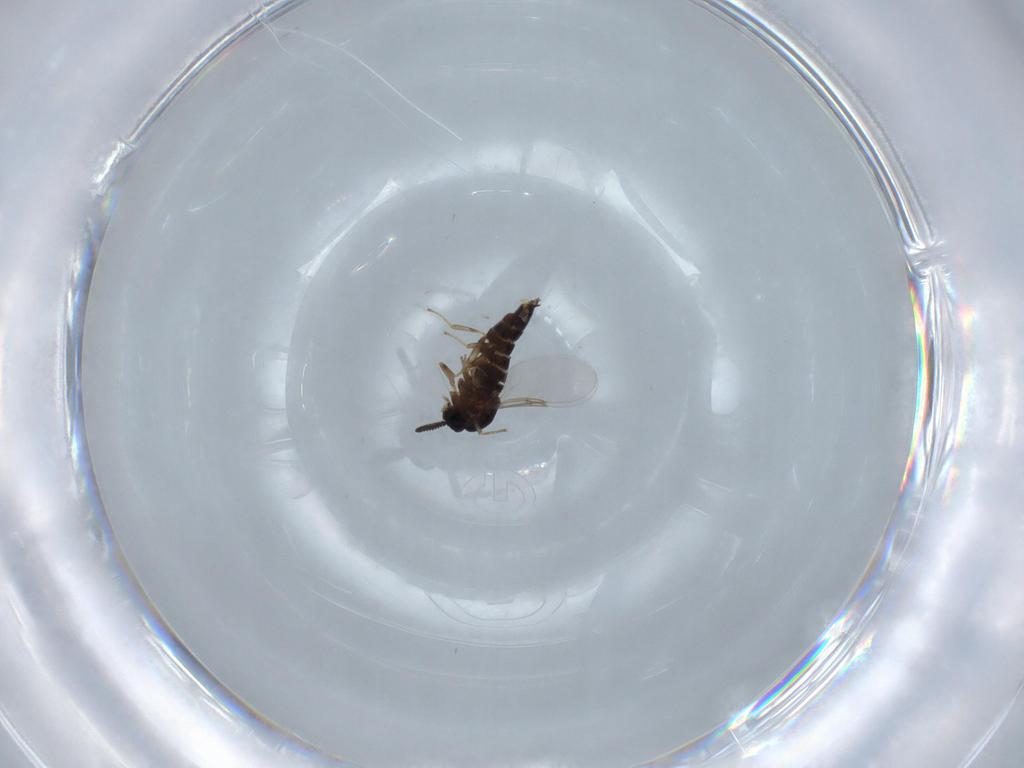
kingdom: Animalia
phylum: Arthropoda
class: Insecta
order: Diptera
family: Scatopsidae
